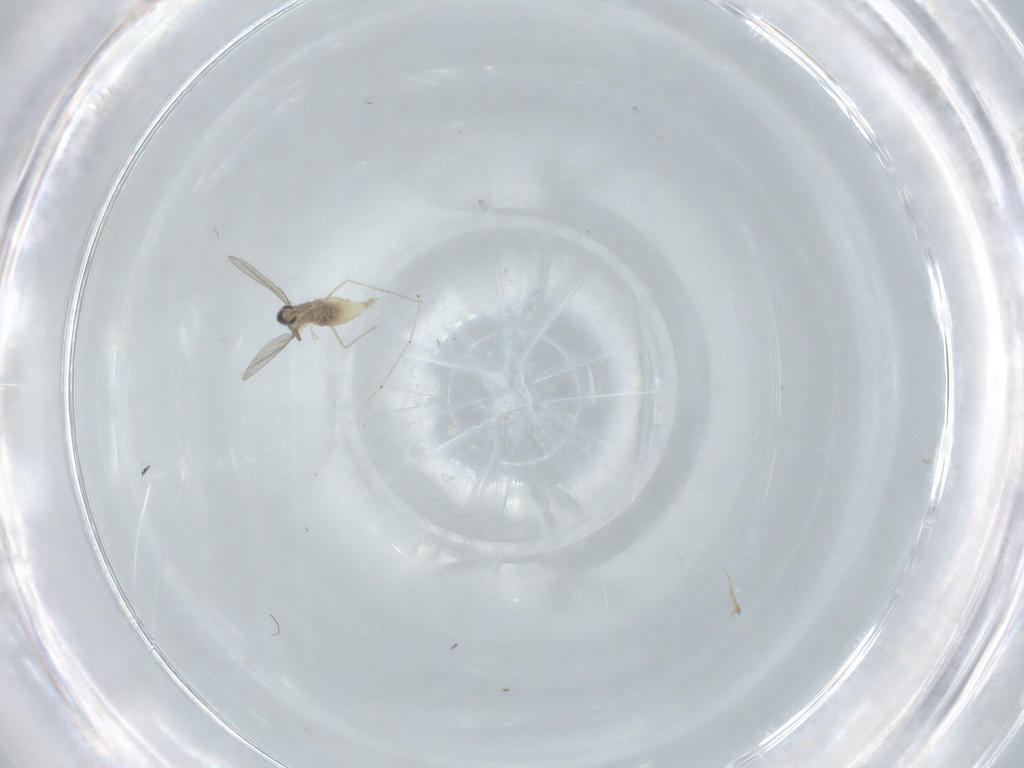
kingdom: Animalia
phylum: Arthropoda
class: Insecta
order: Diptera
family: Cecidomyiidae
